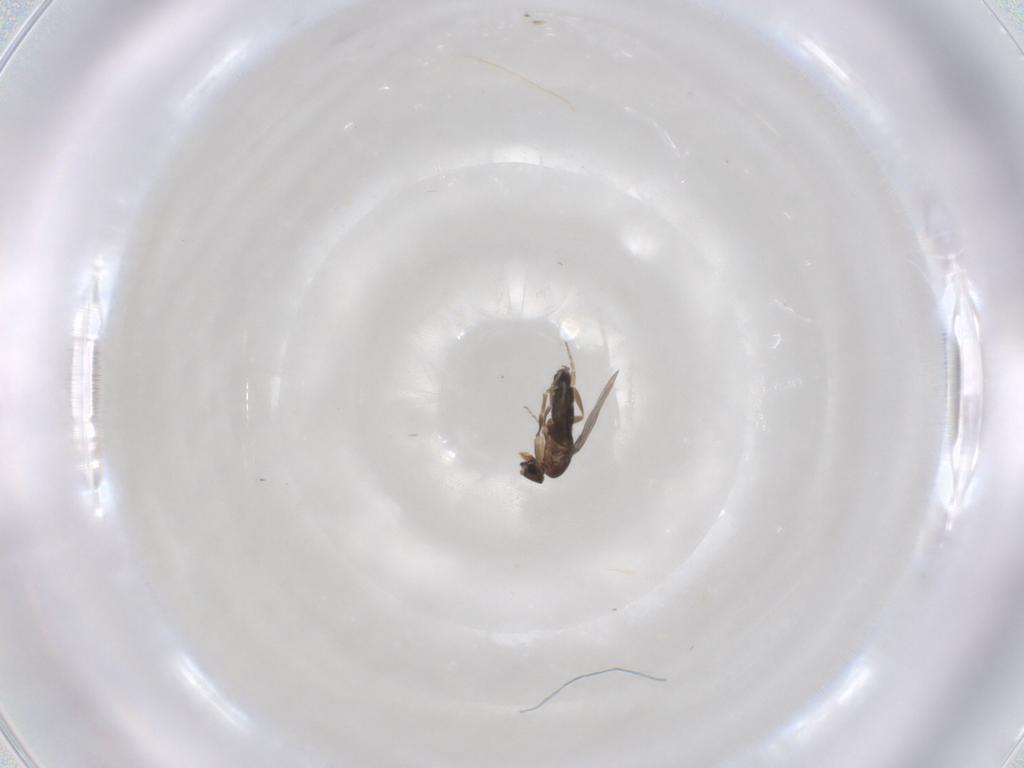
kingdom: Animalia
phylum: Arthropoda
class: Insecta
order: Diptera
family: Phoridae
